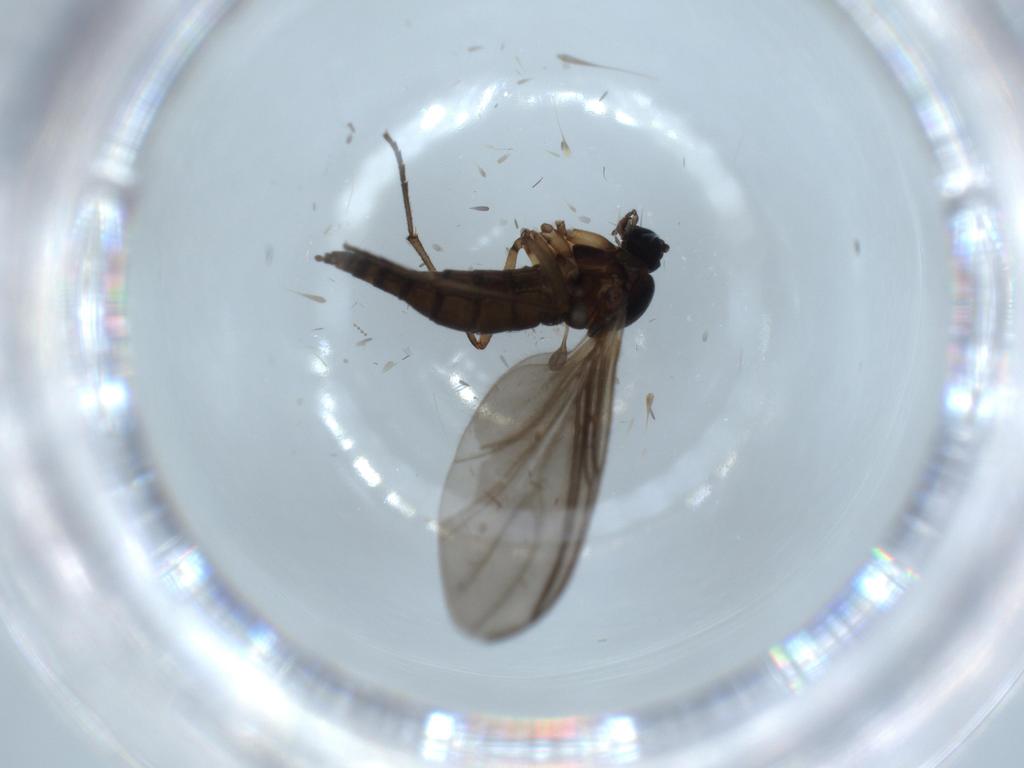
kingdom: Animalia
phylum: Arthropoda
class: Insecta
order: Diptera
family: Sciaridae
